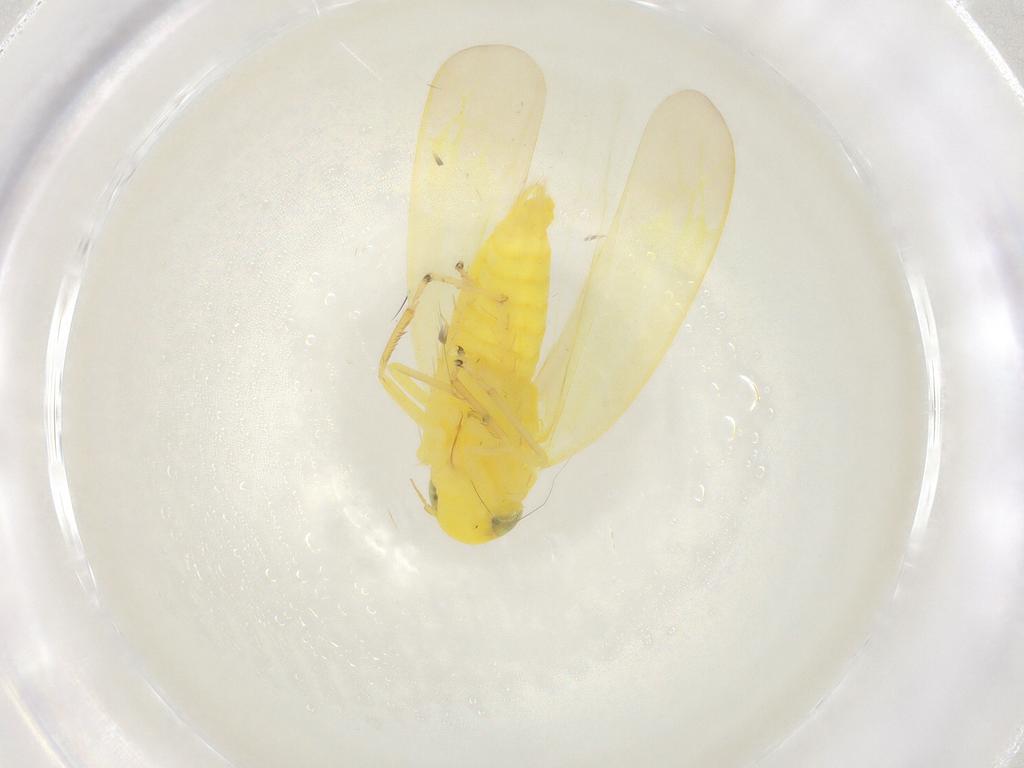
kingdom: Animalia
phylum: Arthropoda
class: Insecta
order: Hemiptera
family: Cicadellidae
